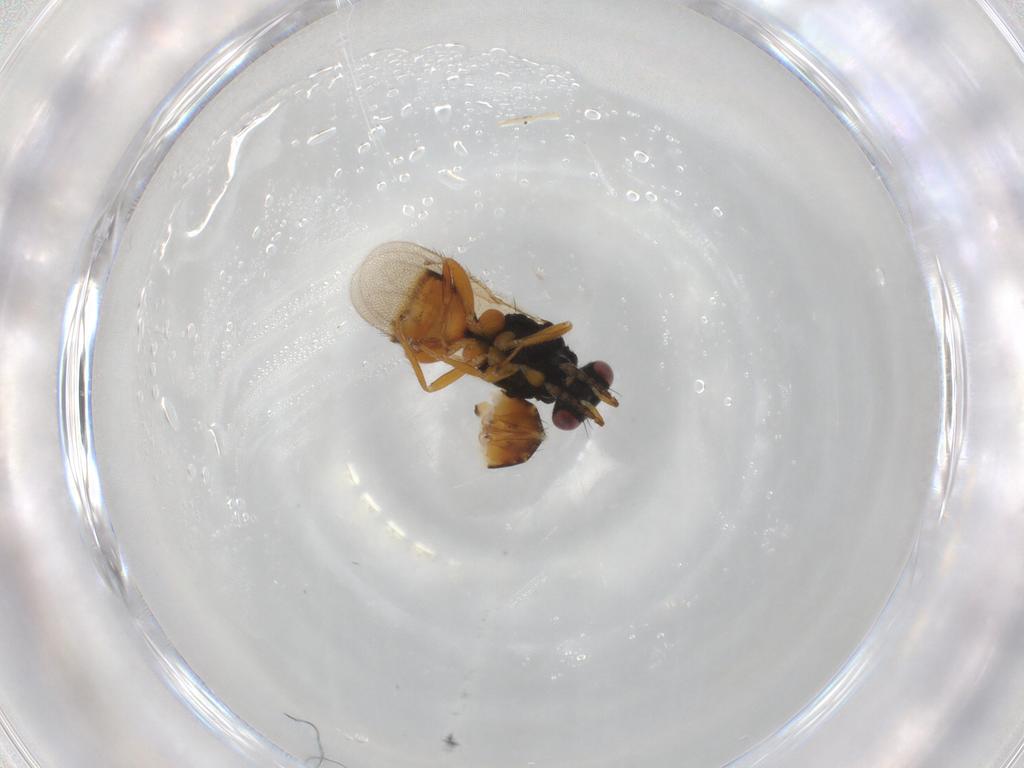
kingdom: Animalia
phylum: Arthropoda
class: Insecta
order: Hymenoptera
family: Eulophidae
